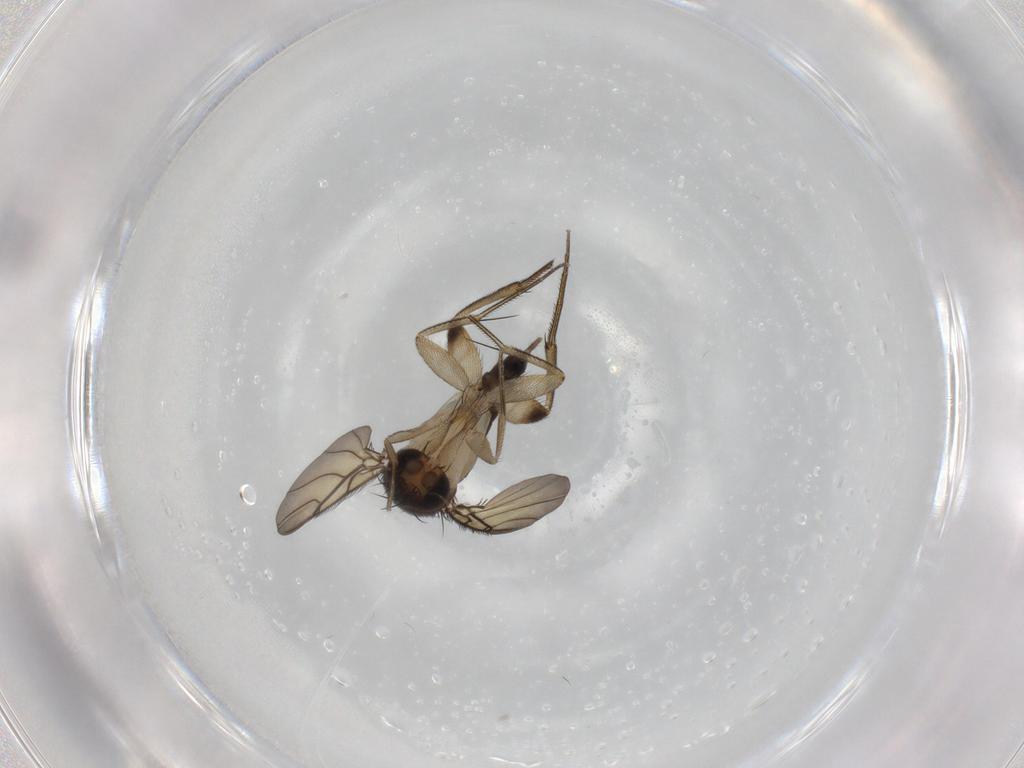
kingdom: Animalia
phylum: Arthropoda
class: Insecta
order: Diptera
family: Phoridae
